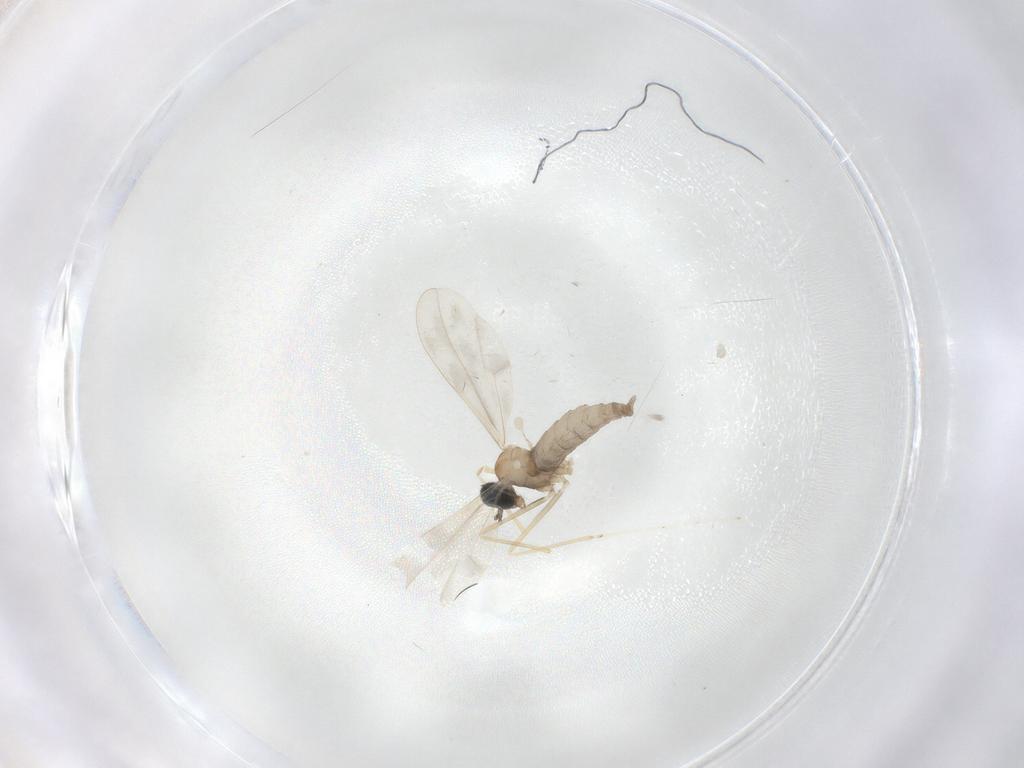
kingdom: Animalia
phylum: Arthropoda
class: Insecta
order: Diptera
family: Cecidomyiidae
